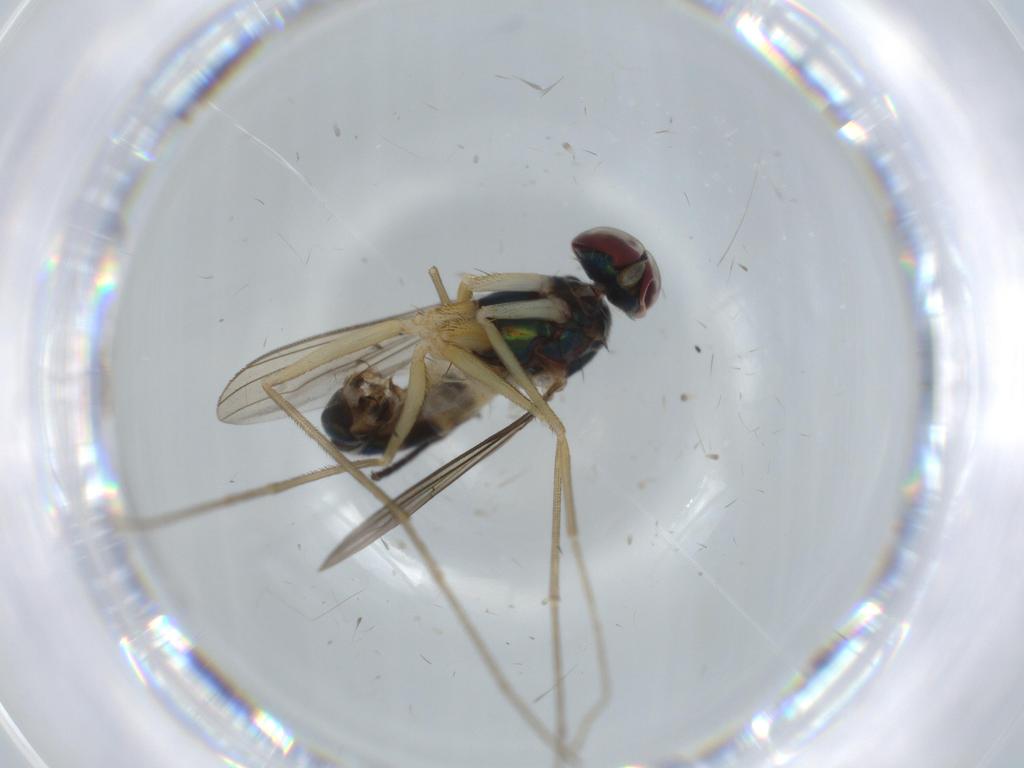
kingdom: Animalia
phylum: Arthropoda
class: Insecta
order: Diptera
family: Dolichopodidae
